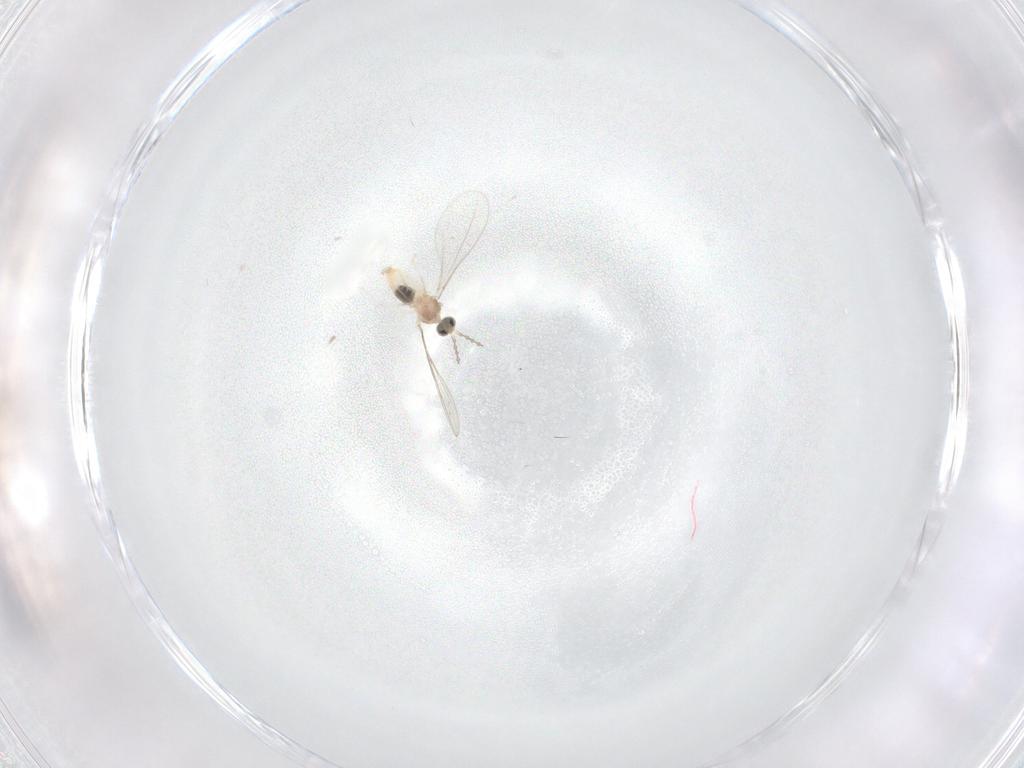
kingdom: Animalia
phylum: Arthropoda
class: Insecta
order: Diptera
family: Cecidomyiidae
